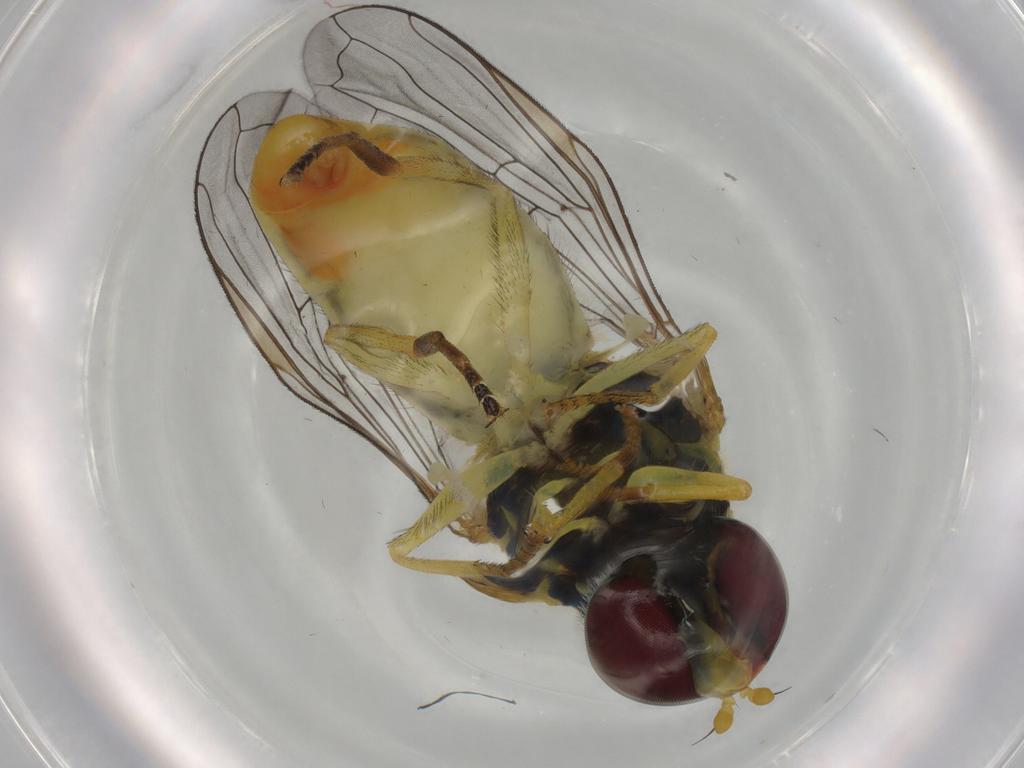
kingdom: Animalia
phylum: Arthropoda
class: Insecta
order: Diptera
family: Syrphidae
